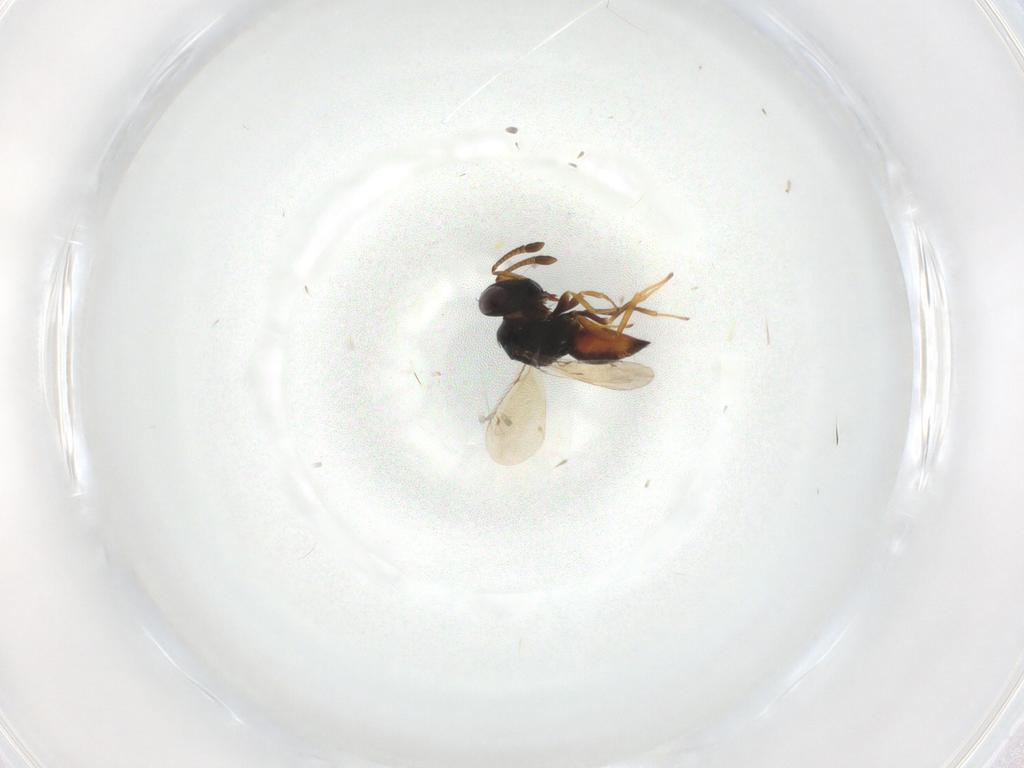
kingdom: Animalia
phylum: Arthropoda
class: Insecta
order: Hymenoptera
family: Diparidae
